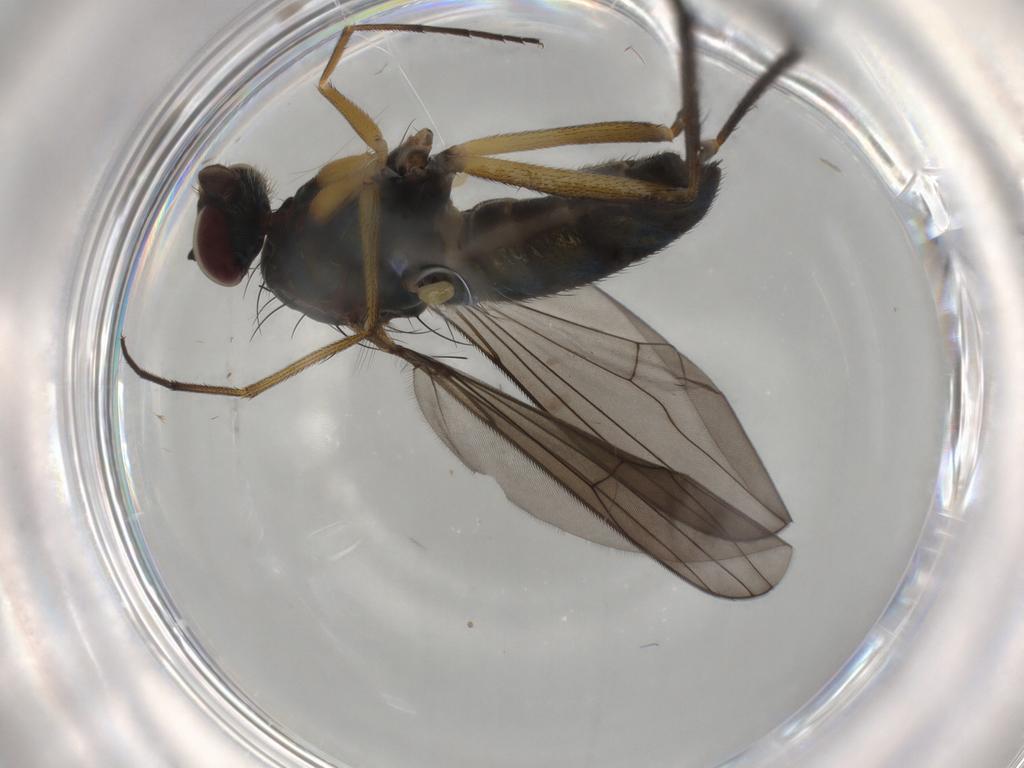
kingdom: Animalia
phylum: Arthropoda
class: Insecta
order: Diptera
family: Dolichopodidae
